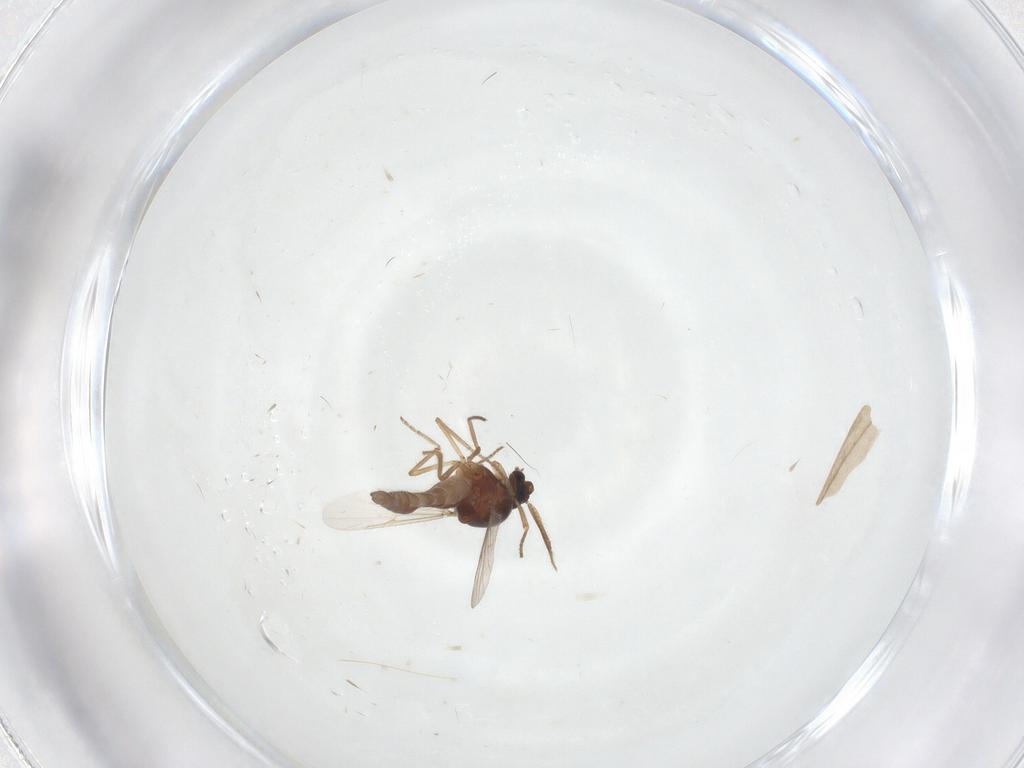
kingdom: Animalia
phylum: Arthropoda
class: Insecta
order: Diptera
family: Ceratopogonidae
